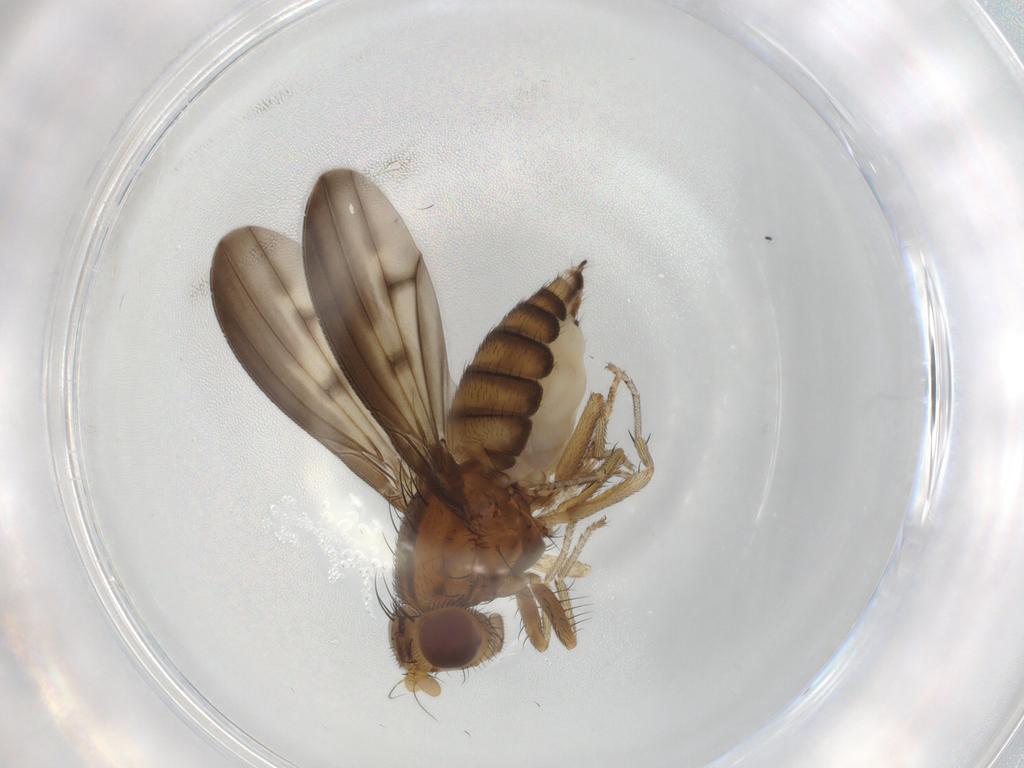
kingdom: Animalia
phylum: Arthropoda
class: Insecta
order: Diptera
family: Lauxaniidae
